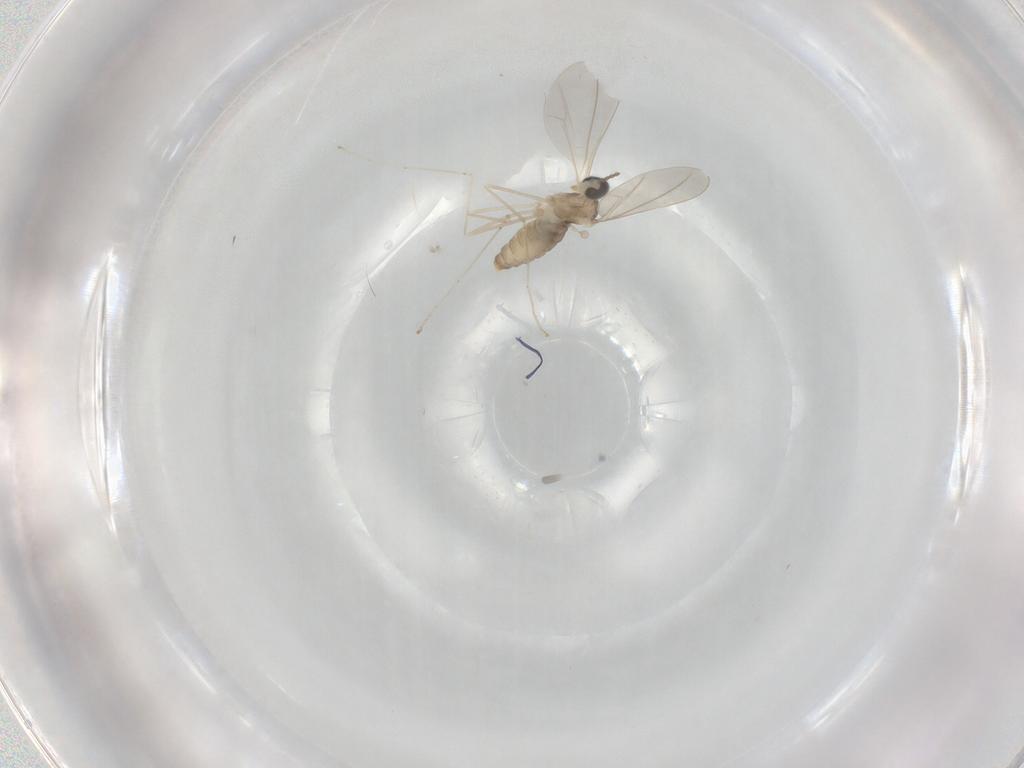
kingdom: Animalia
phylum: Arthropoda
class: Insecta
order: Diptera
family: Cecidomyiidae
